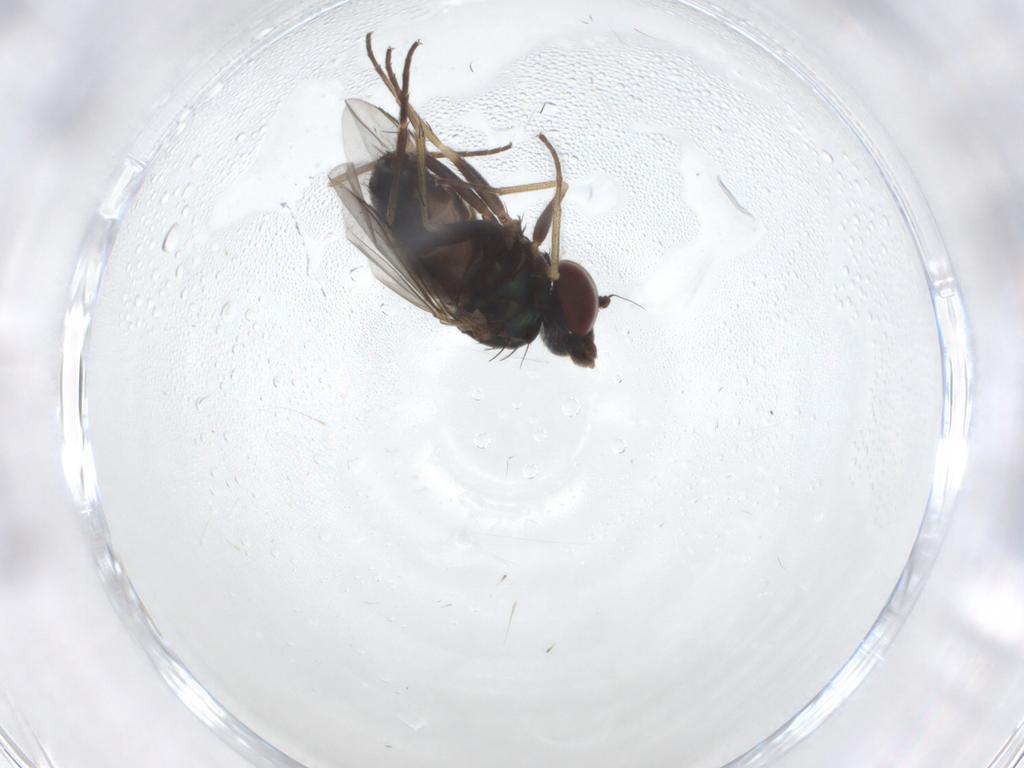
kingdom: Animalia
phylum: Arthropoda
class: Insecta
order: Diptera
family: Dolichopodidae
